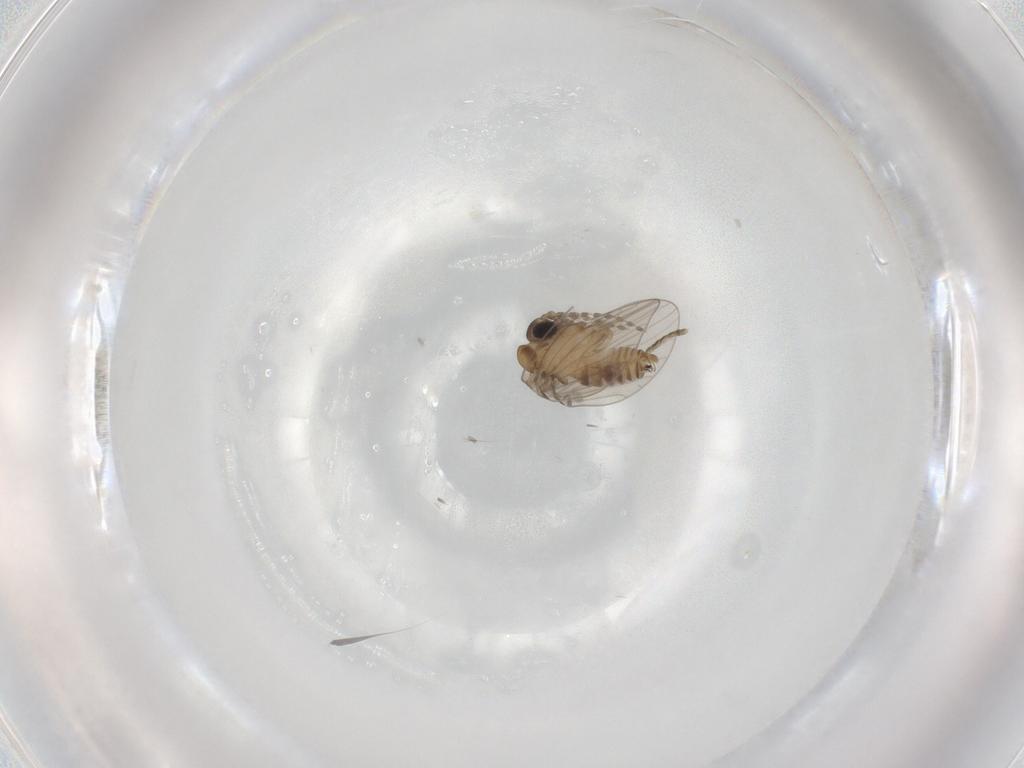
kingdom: Animalia
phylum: Arthropoda
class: Insecta
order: Diptera
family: Psychodidae
